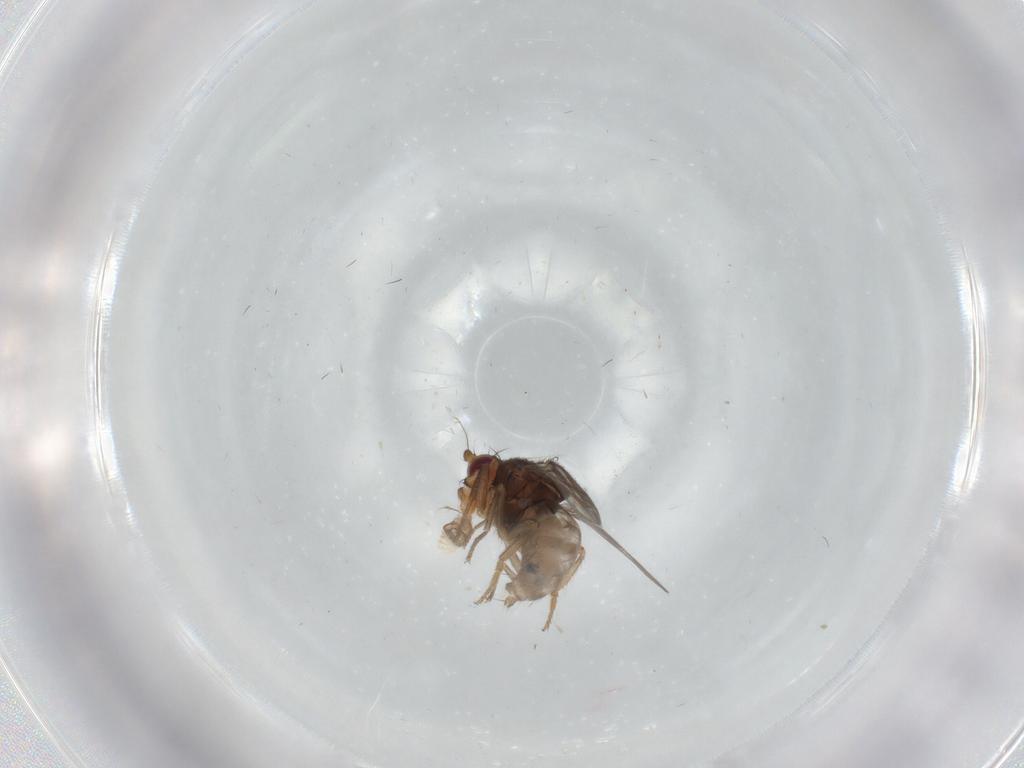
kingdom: Animalia
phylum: Arthropoda
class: Insecta
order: Diptera
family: Sphaeroceridae
